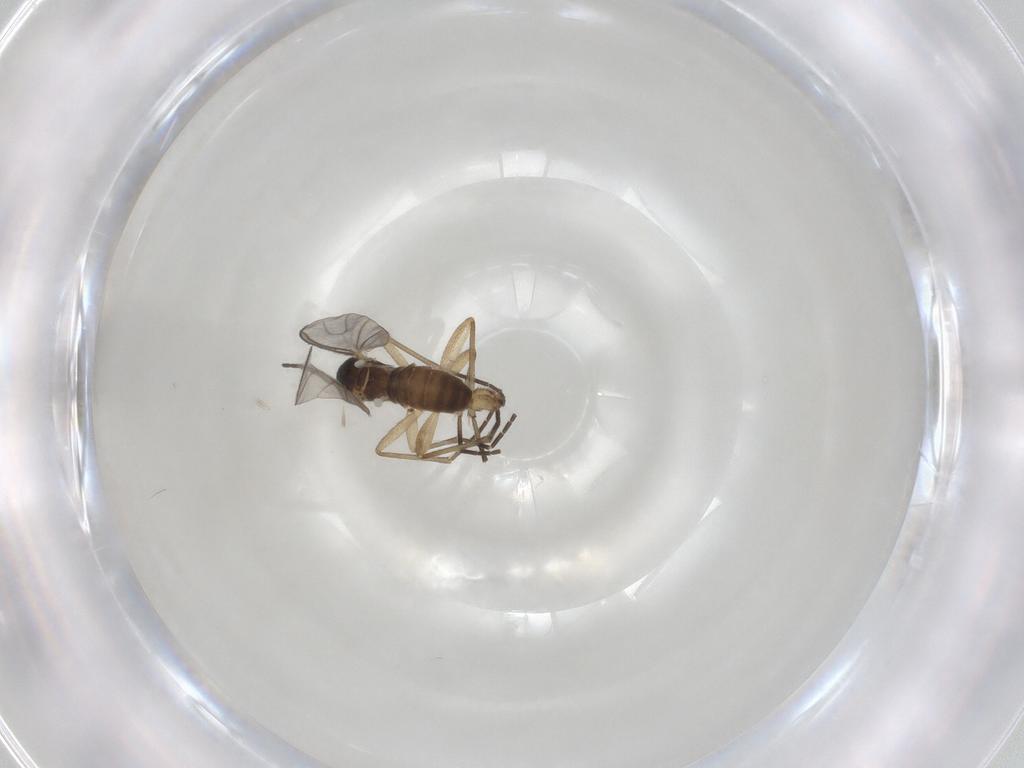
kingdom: Animalia
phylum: Arthropoda
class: Insecta
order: Diptera
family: Chironomidae
